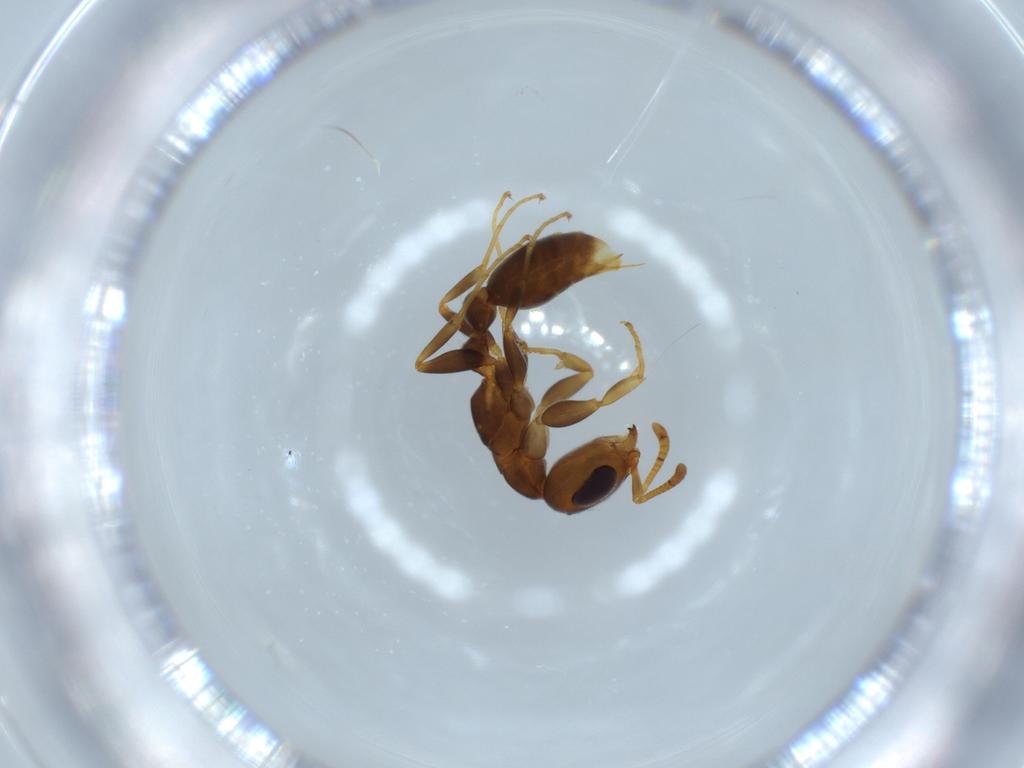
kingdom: Animalia
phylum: Arthropoda
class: Insecta
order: Hymenoptera
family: Formicidae
